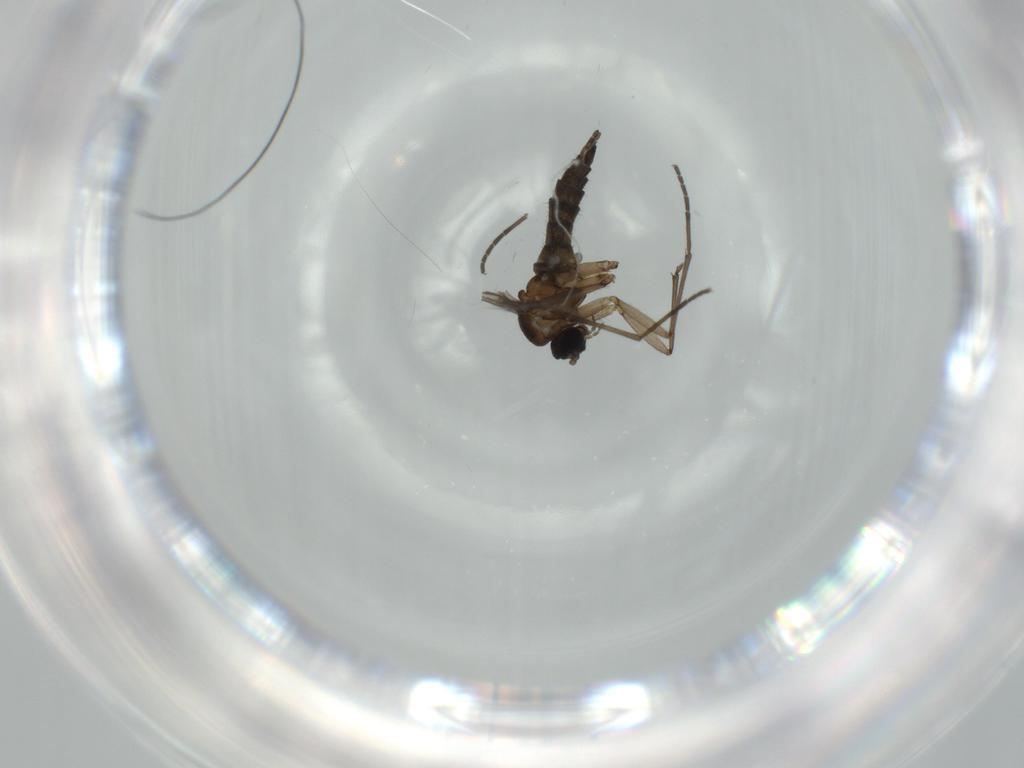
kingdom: Animalia
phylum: Arthropoda
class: Insecta
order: Diptera
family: Sciaridae
